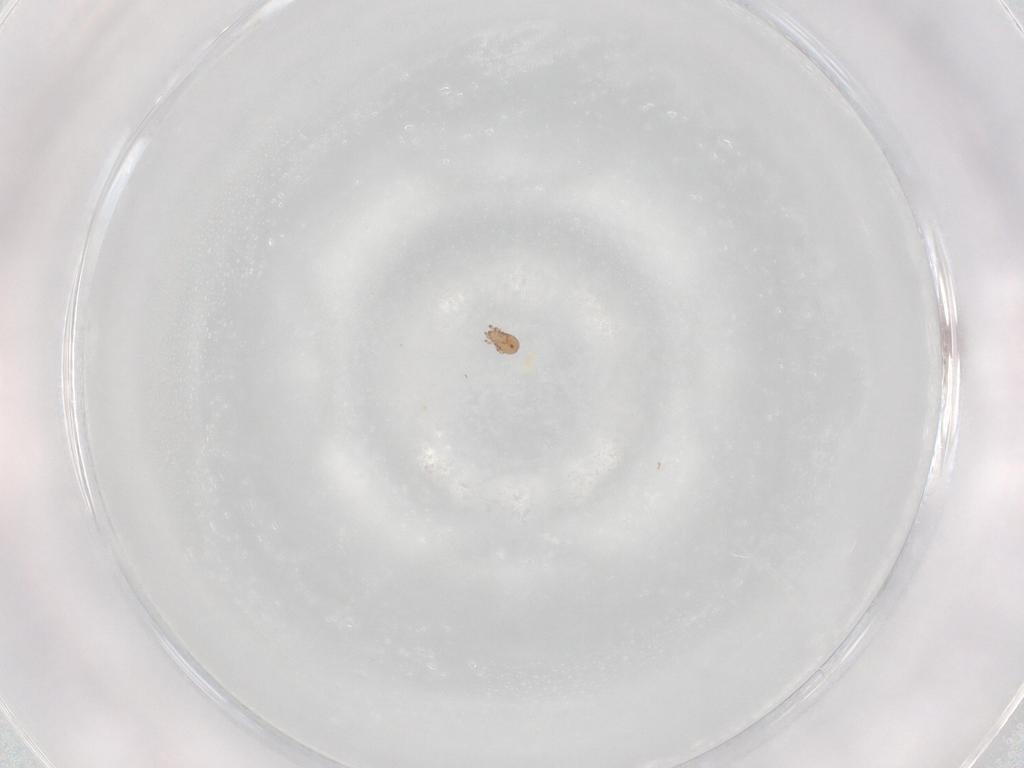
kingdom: Animalia
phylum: Arthropoda
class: Arachnida
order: Sarcoptiformes
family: Eremaeidae
